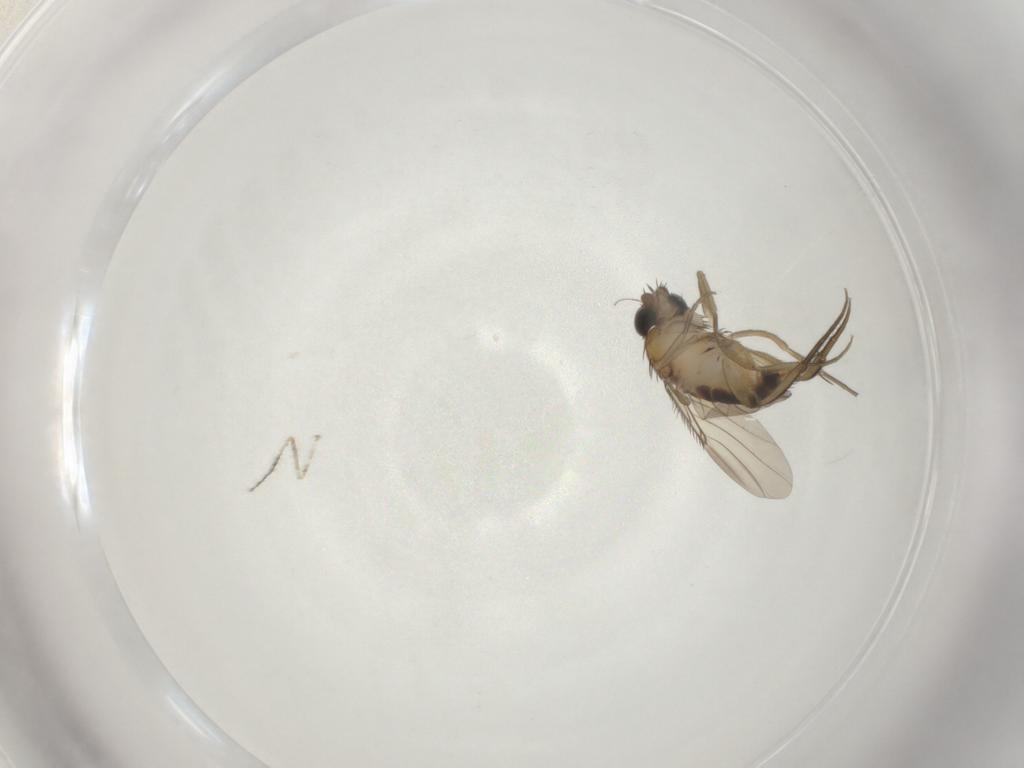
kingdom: Animalia
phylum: Arthropoda
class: Insecta
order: Diptera
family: Phoridae
